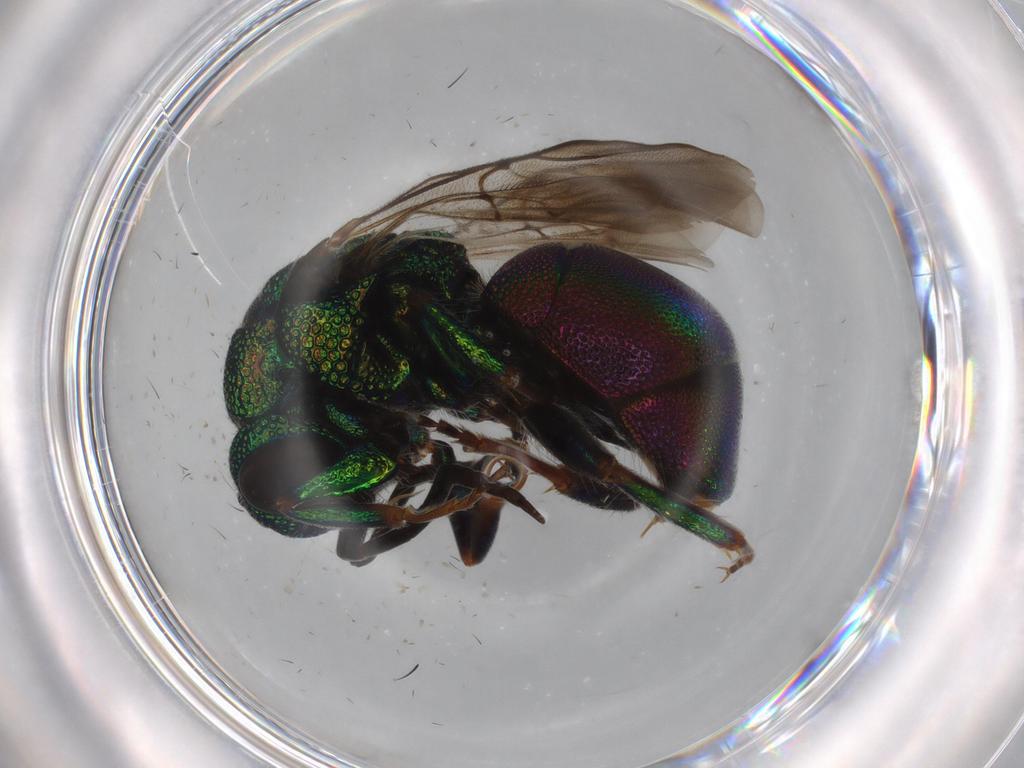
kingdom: Animalia
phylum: Arthropoda
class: Insecta
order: Hymenoptera
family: Chrysididae
